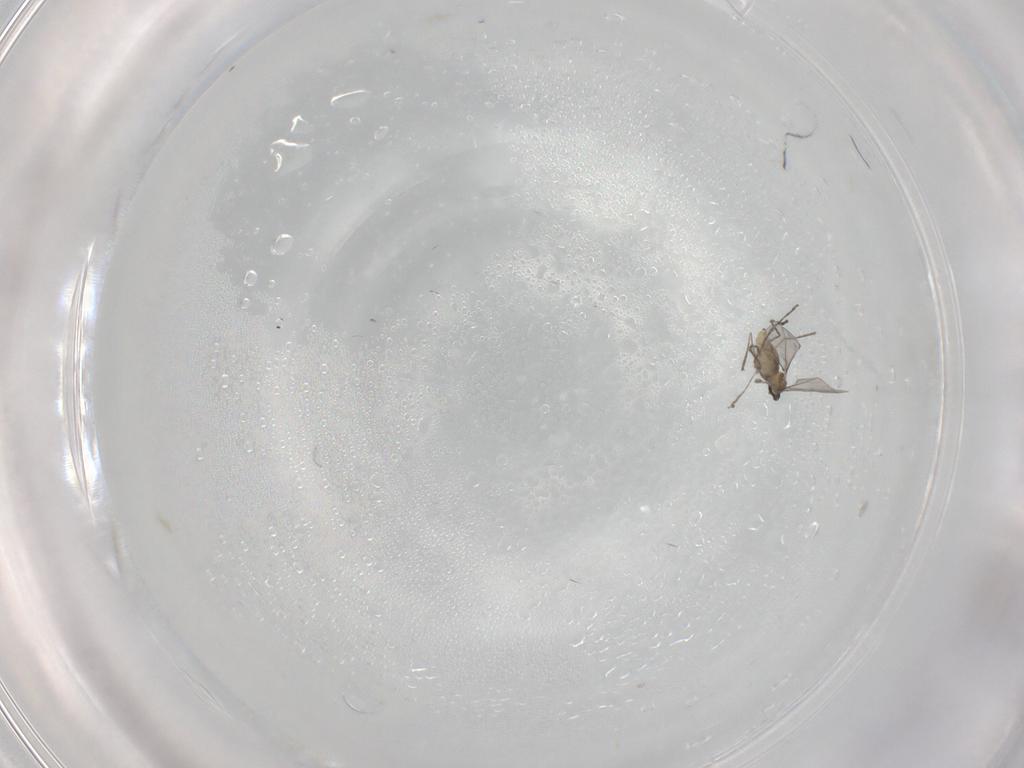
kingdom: Animalia
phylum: Arthropoda
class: Insecta
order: Diptera
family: Cecidomyiidae
